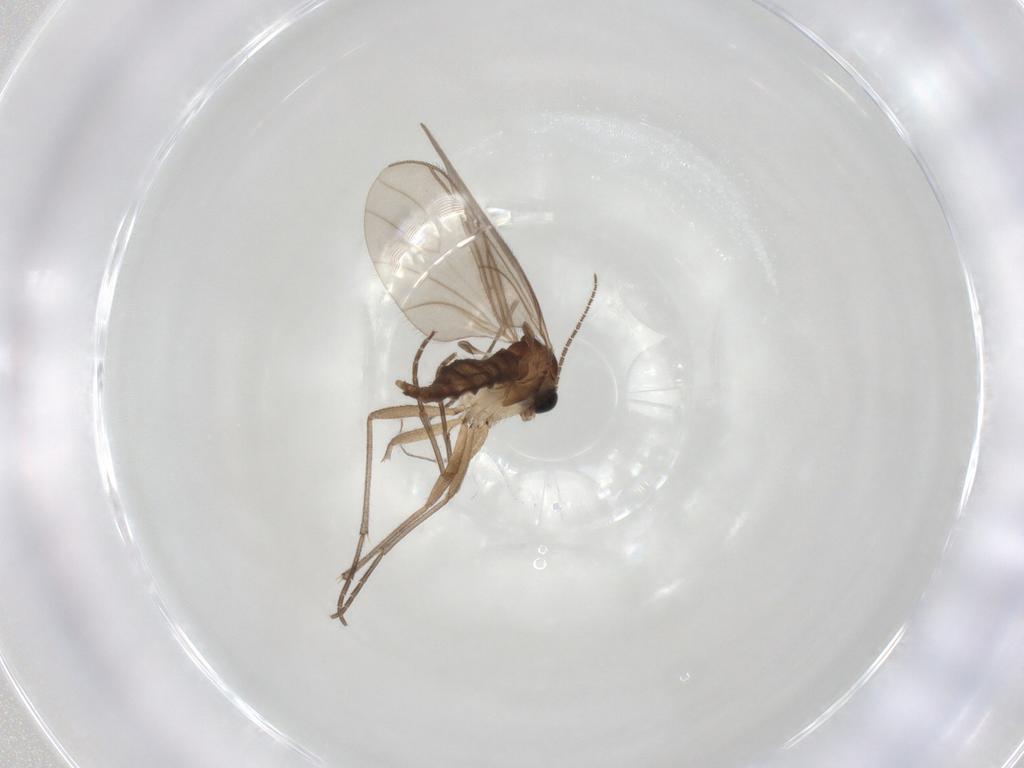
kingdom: Animalia
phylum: Arthropoda
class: Insecta
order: Diptera
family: Sciaridae
